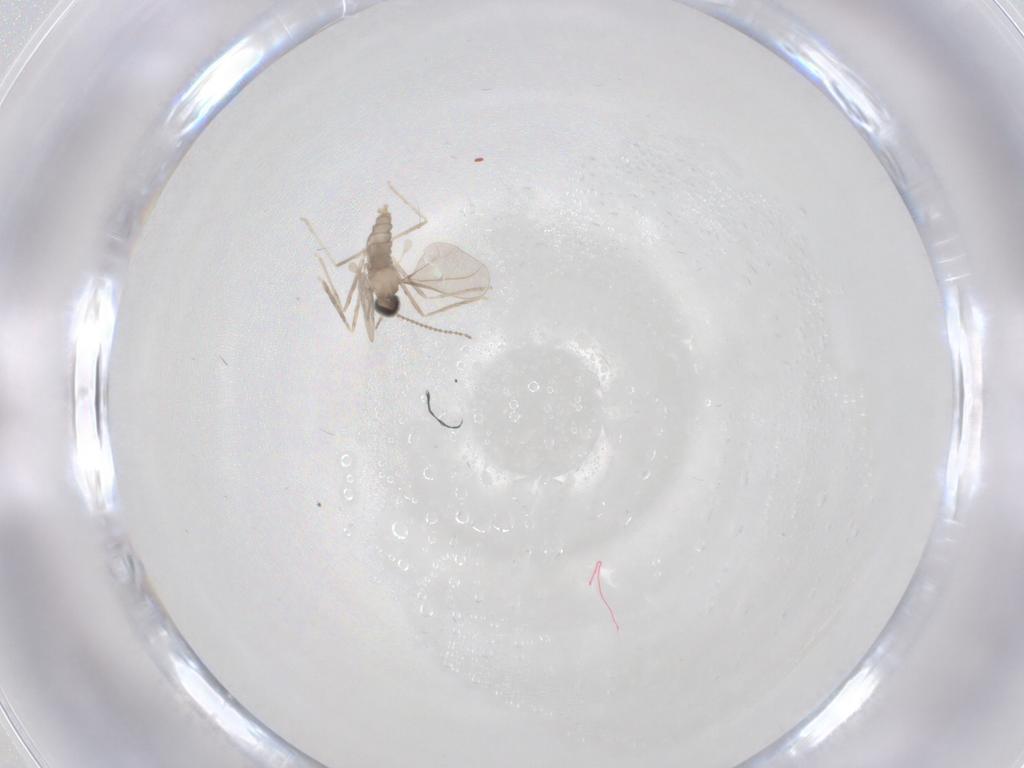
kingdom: Animalia
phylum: Arthropoda
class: Insecta
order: Diptera
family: Cecidomyiidae
